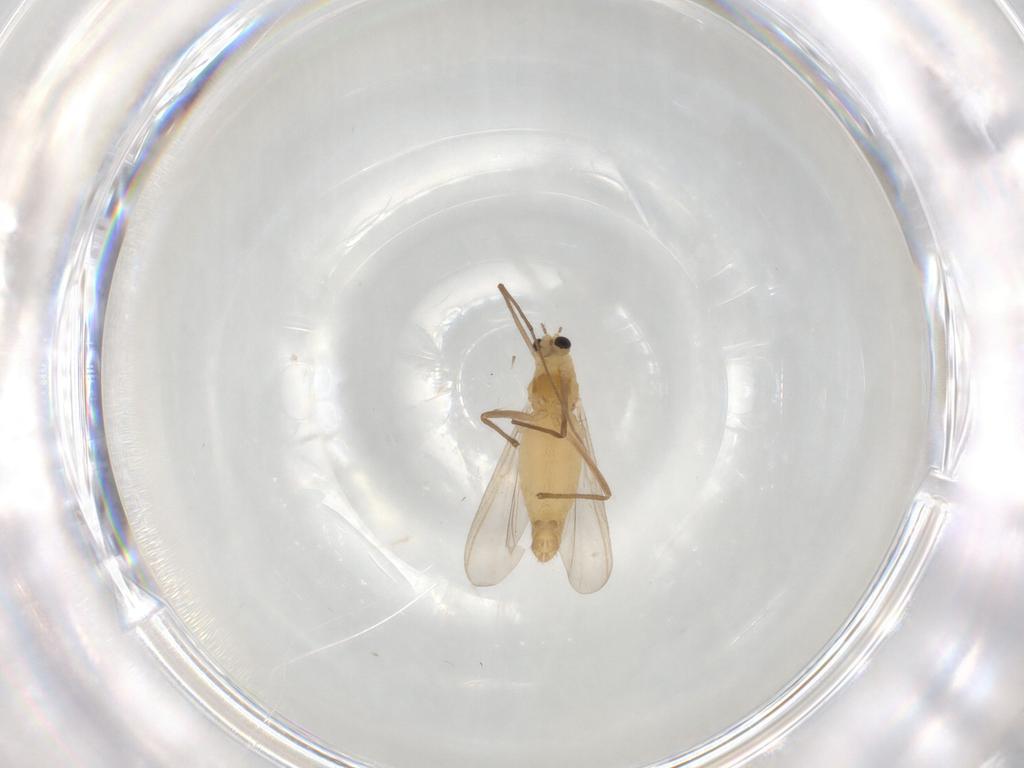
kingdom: Animalia
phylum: Arthropoda
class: Insecta
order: Diptera
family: Chironomidae
